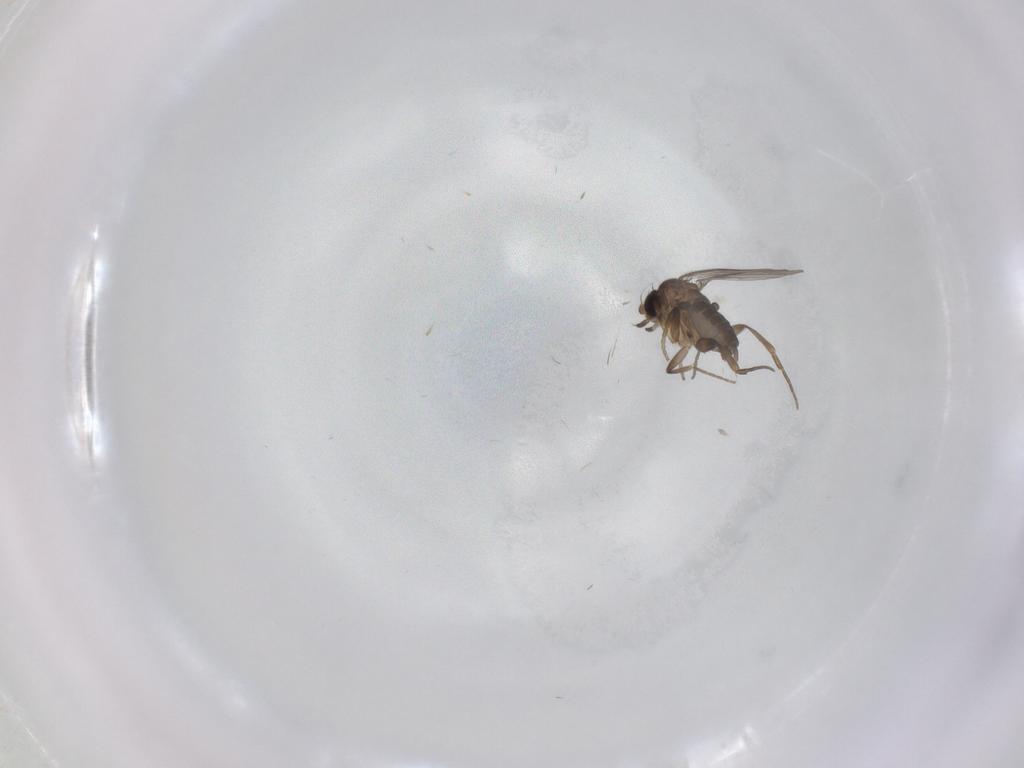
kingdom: Animalia
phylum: Arthropoda
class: Insecta
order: Diptera
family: Phoridae
